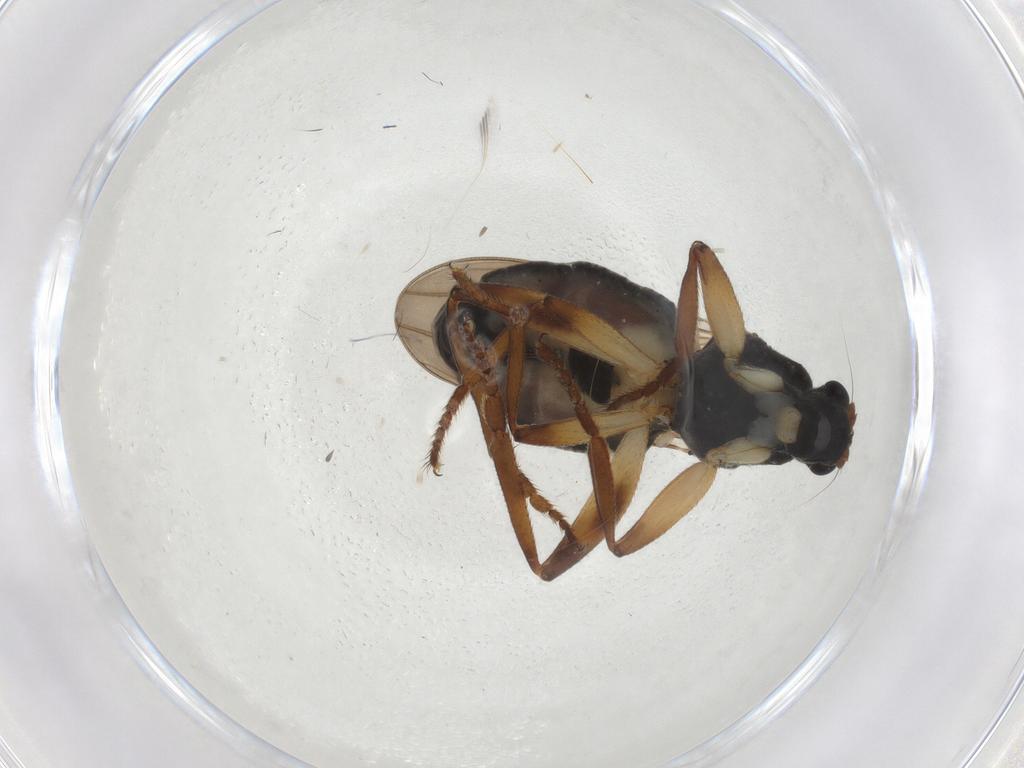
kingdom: Animalia
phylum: Arthropoda
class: Insecta
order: Diptera
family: Sphaeroceridae
